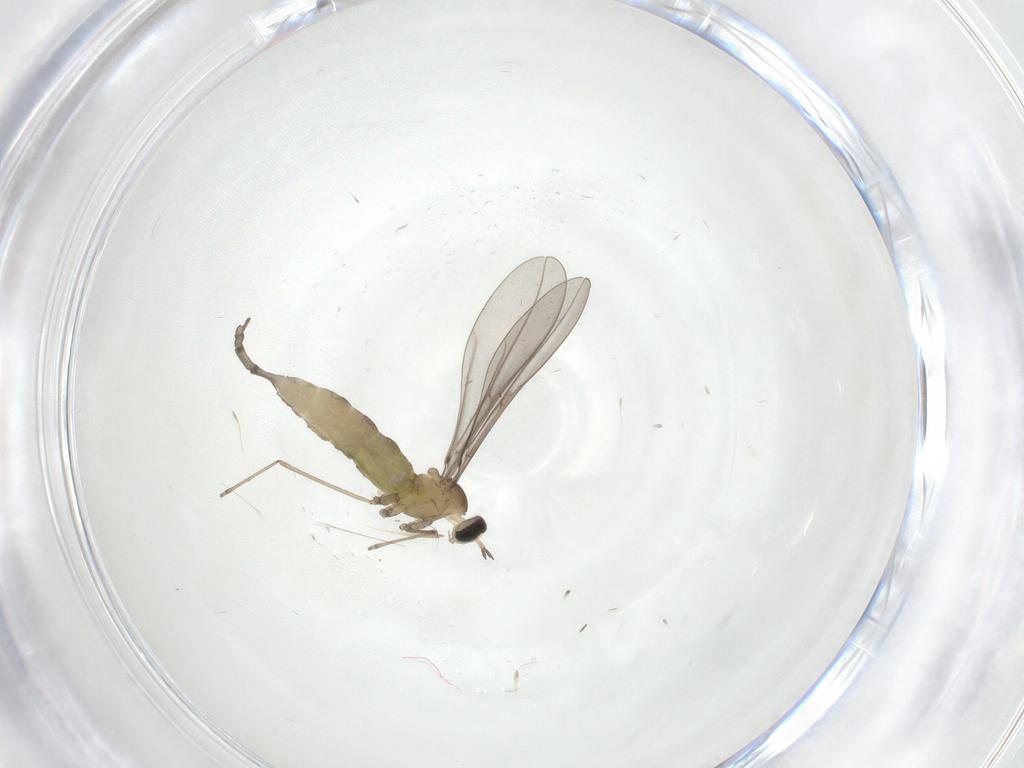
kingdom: Animalia
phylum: Arthropoda
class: Insecta
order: Diptera
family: Cecidomyiidae
